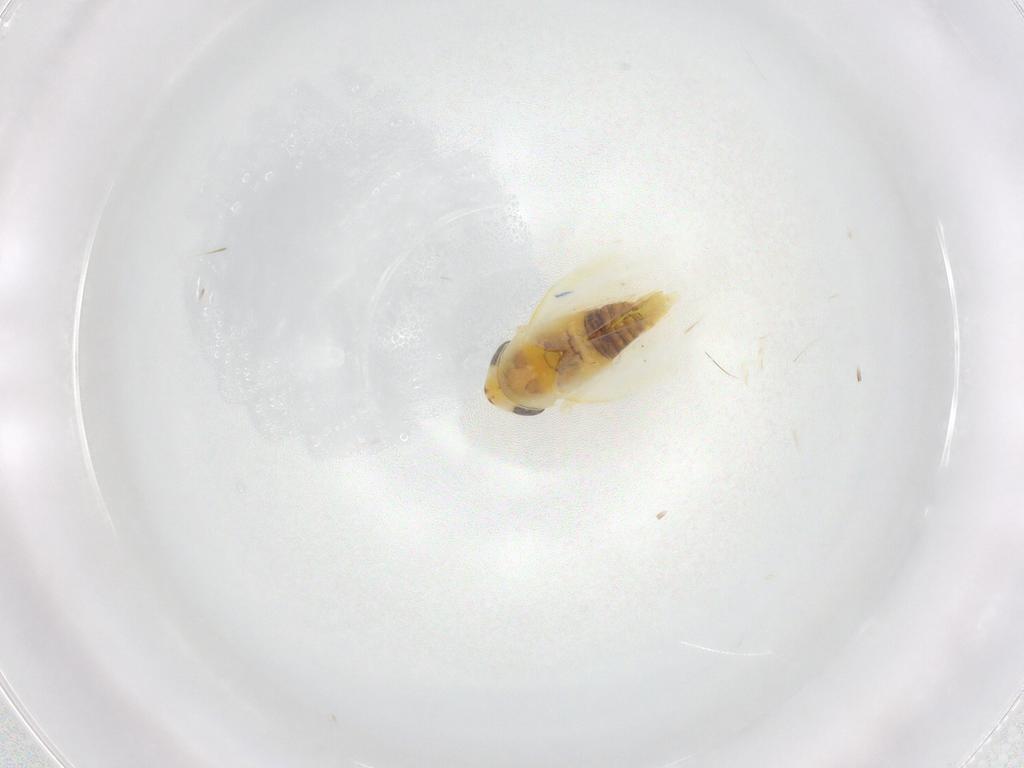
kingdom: Animalia
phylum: Arthropoda
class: Insecta
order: Hemiptera
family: Cicadellidae
